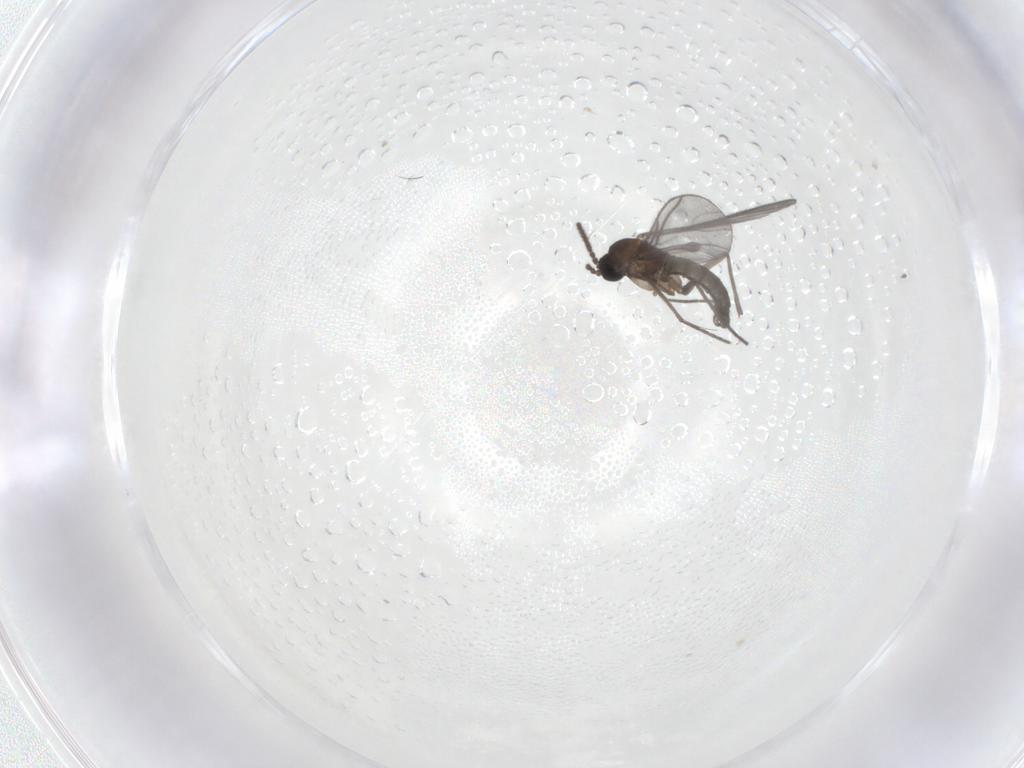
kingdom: Animalia
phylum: Arthropoda
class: Insecta
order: Diptera
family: Sciaridae
